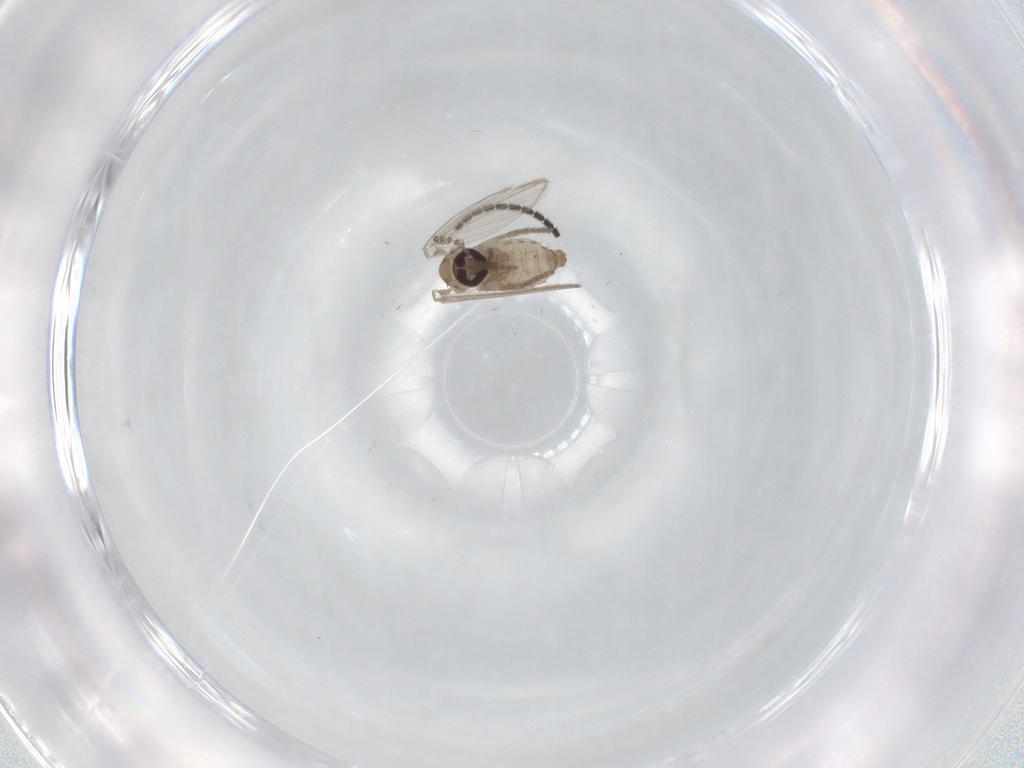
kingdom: Animalia
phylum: Arthropoda
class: Insecta
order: Diptera
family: Psychodidae
